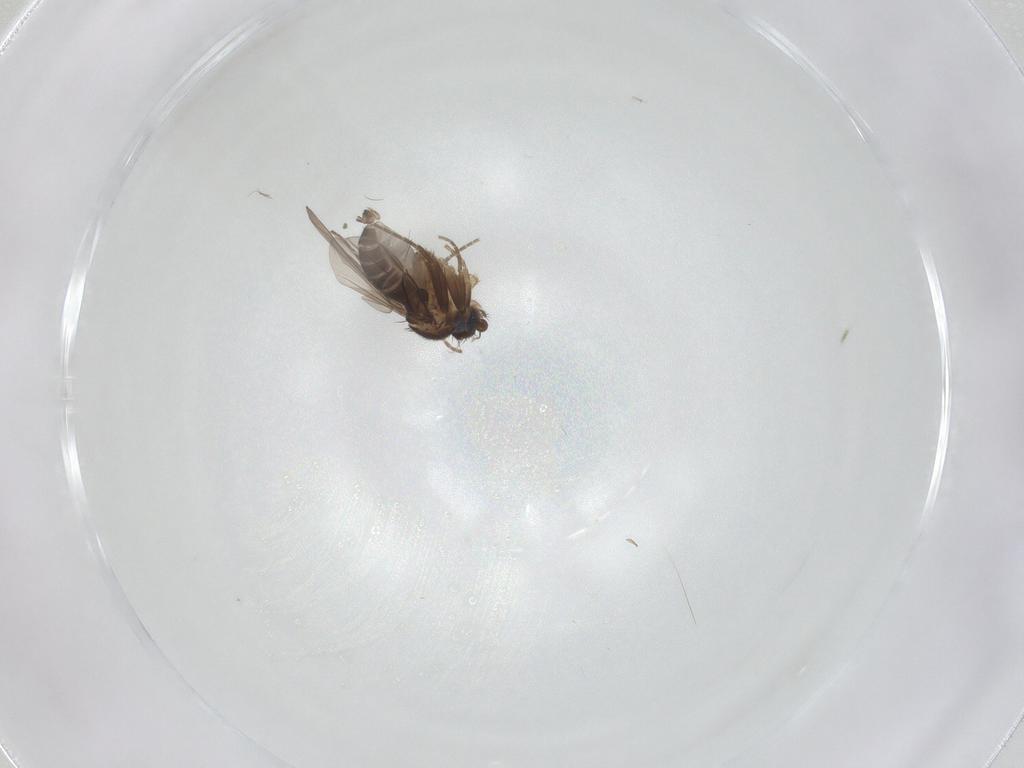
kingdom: Animalia
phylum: Arthropoda
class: Insecta
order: Diptera
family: Phoridae
